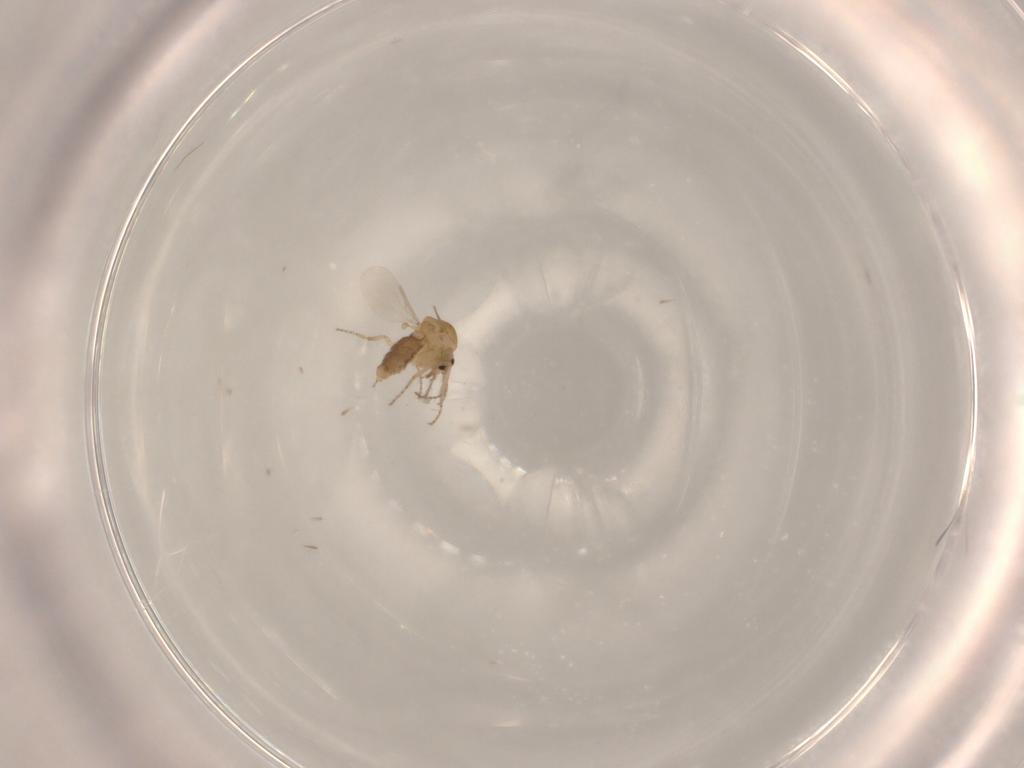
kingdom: Animalia
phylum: Arthropoda
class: Insecta
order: Diptera
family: Ceratopogonidae
